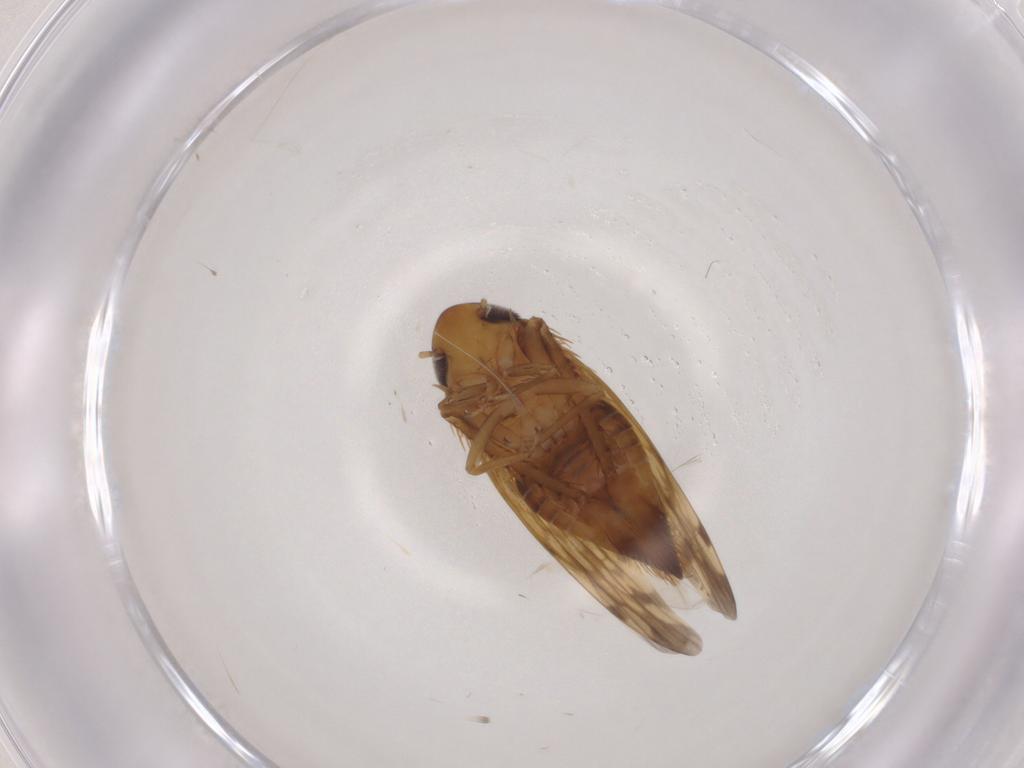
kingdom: Animalia
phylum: Arthropoda
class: Insecta
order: Hemiptera
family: Cicadellidae
